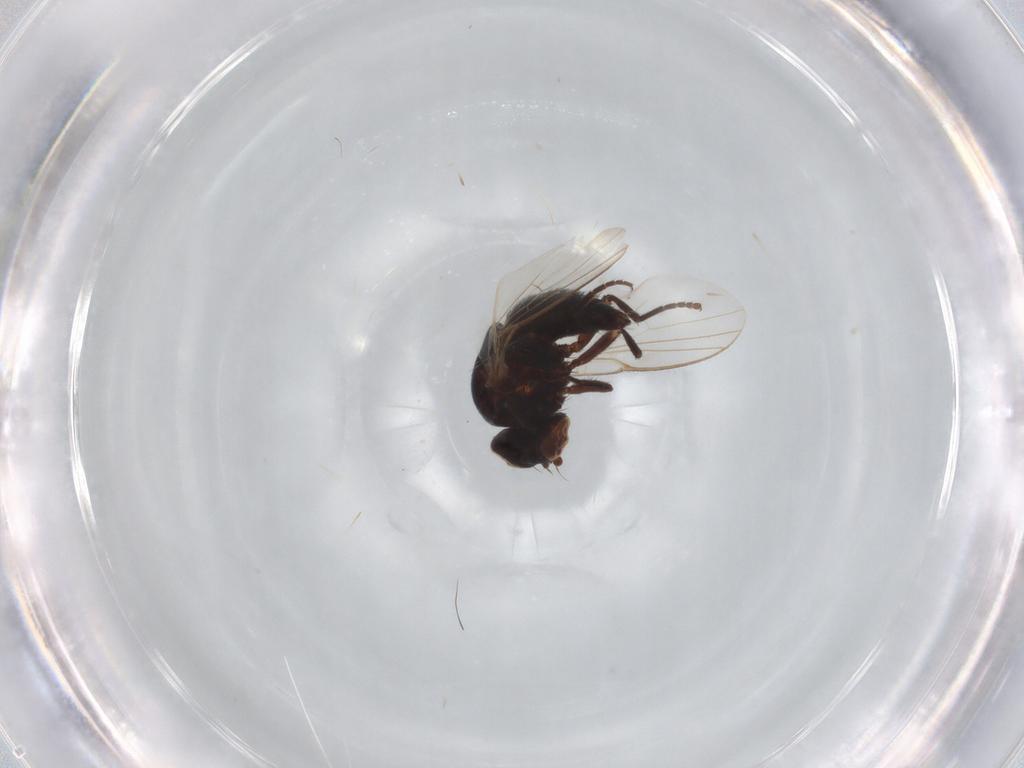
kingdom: Animalia
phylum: Arthropoda
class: Insecta
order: Diptera
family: Agromyzidae
